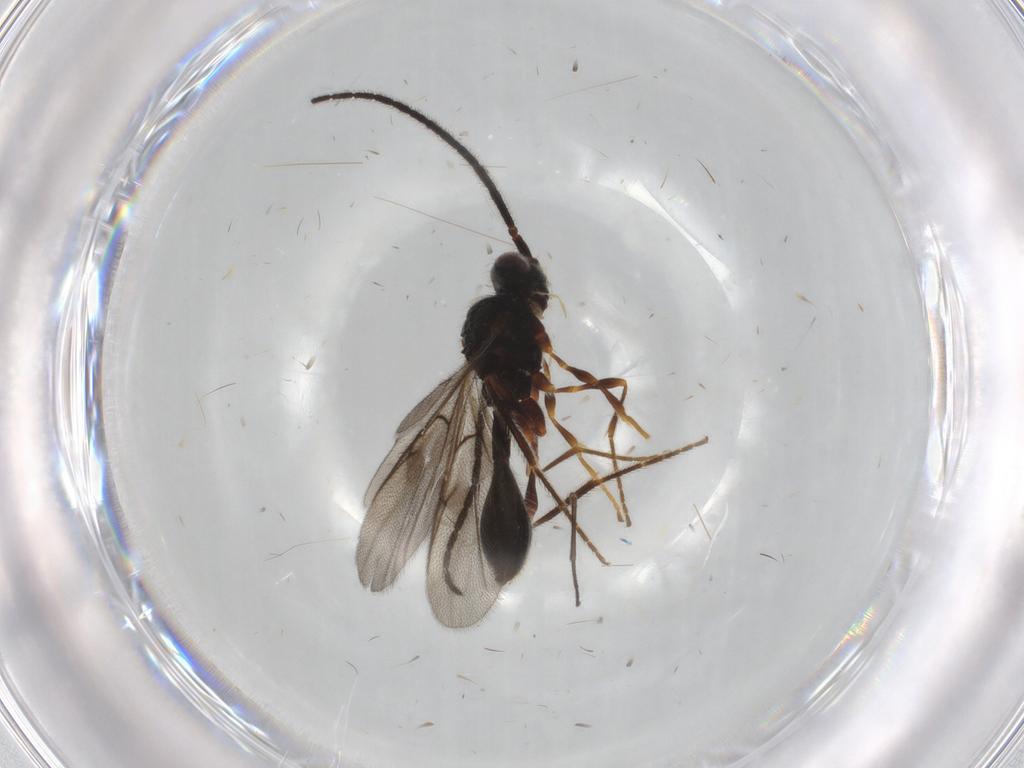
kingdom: Animalia
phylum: Arthropoda
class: Insecta
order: Hymenoptera
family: Diapriidae
